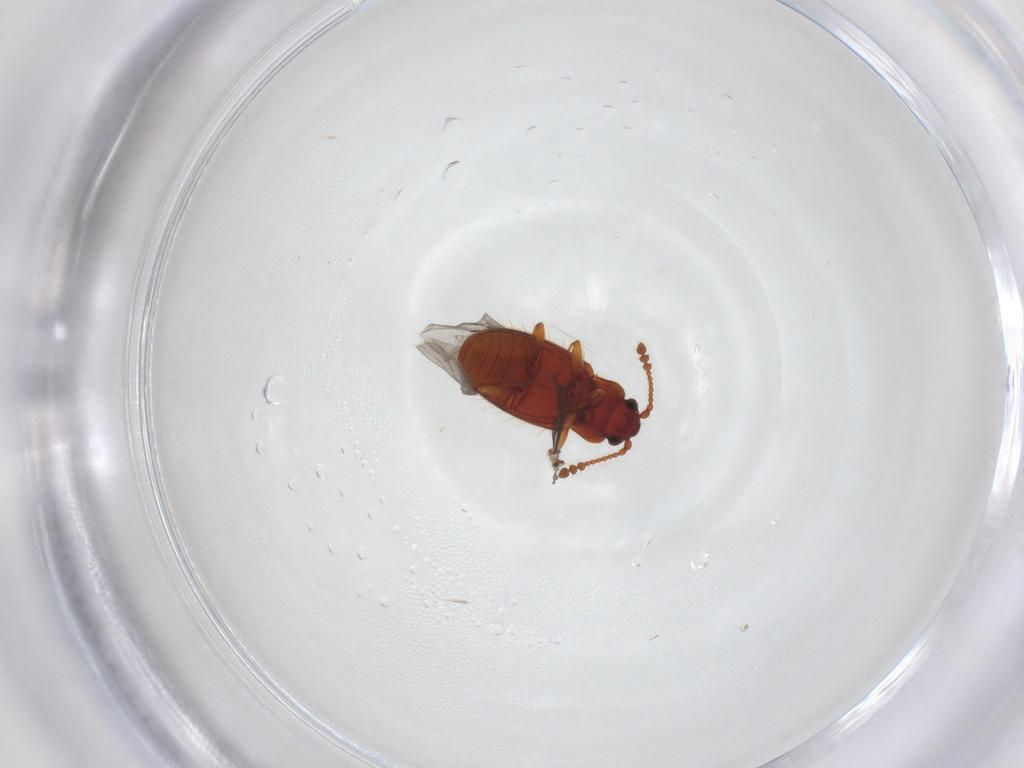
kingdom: Animalia
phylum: Arthropoda
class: Insecta
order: Coleoptera
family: Cryptophagidae
